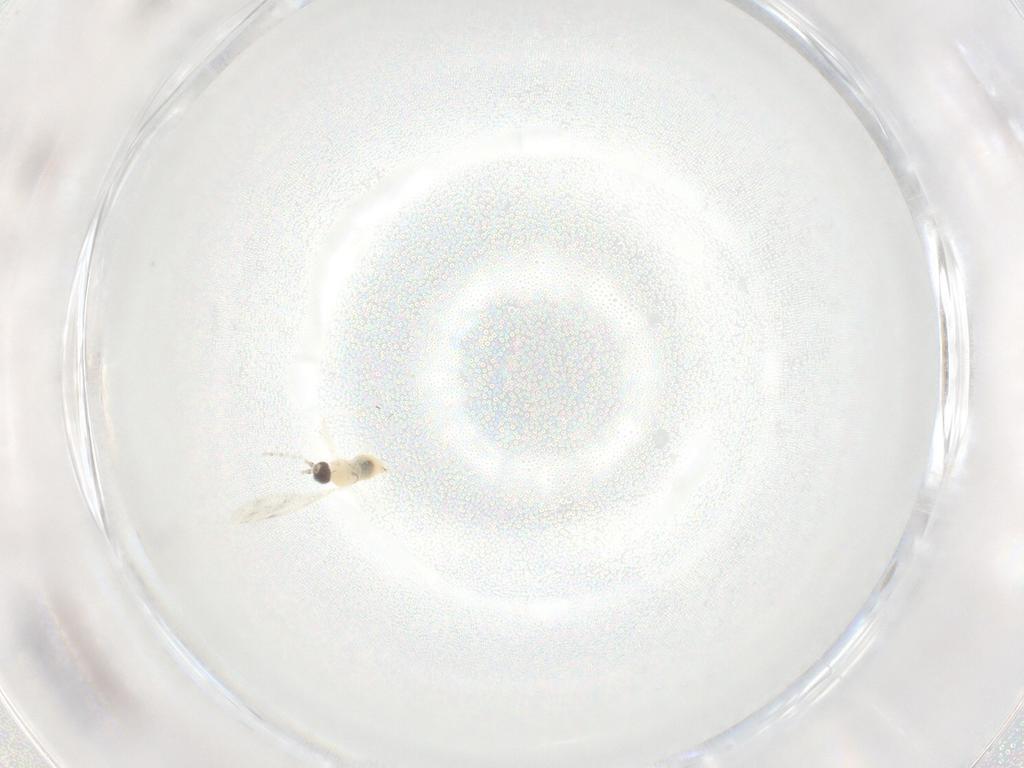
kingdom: Animalia
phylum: Arthropoda
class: Insecta
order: Diptera
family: Cecidomyiidae
